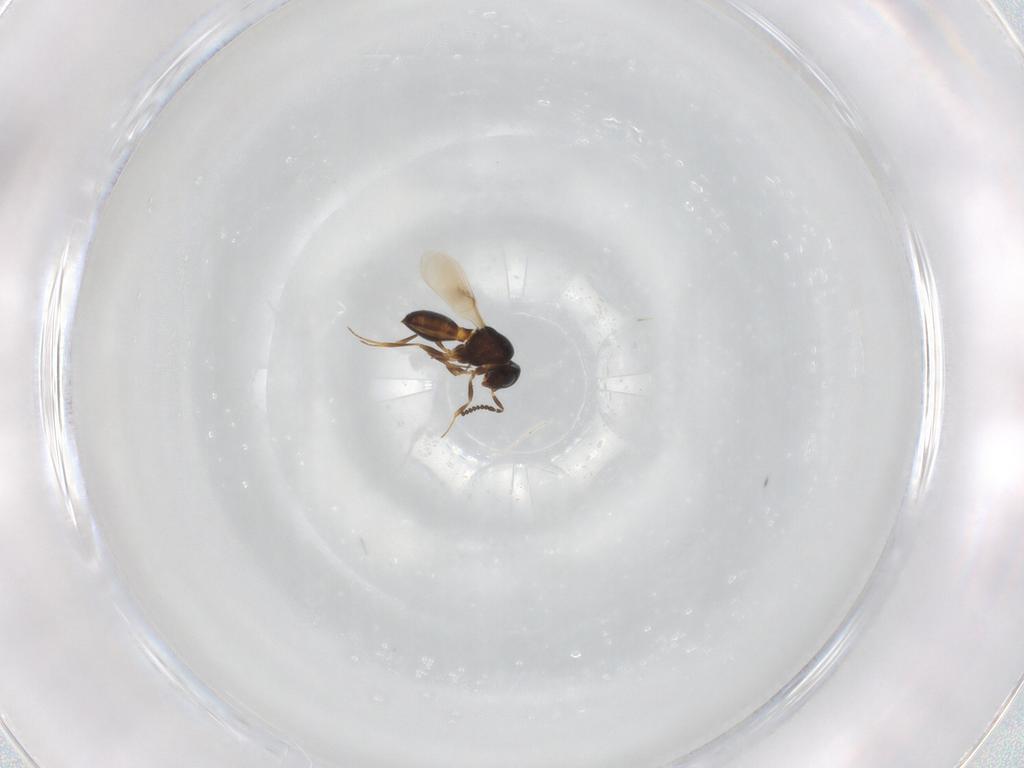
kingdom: Animalia
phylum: Arthropoda
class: Insecta
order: Hymenoptera
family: Scelionidae
